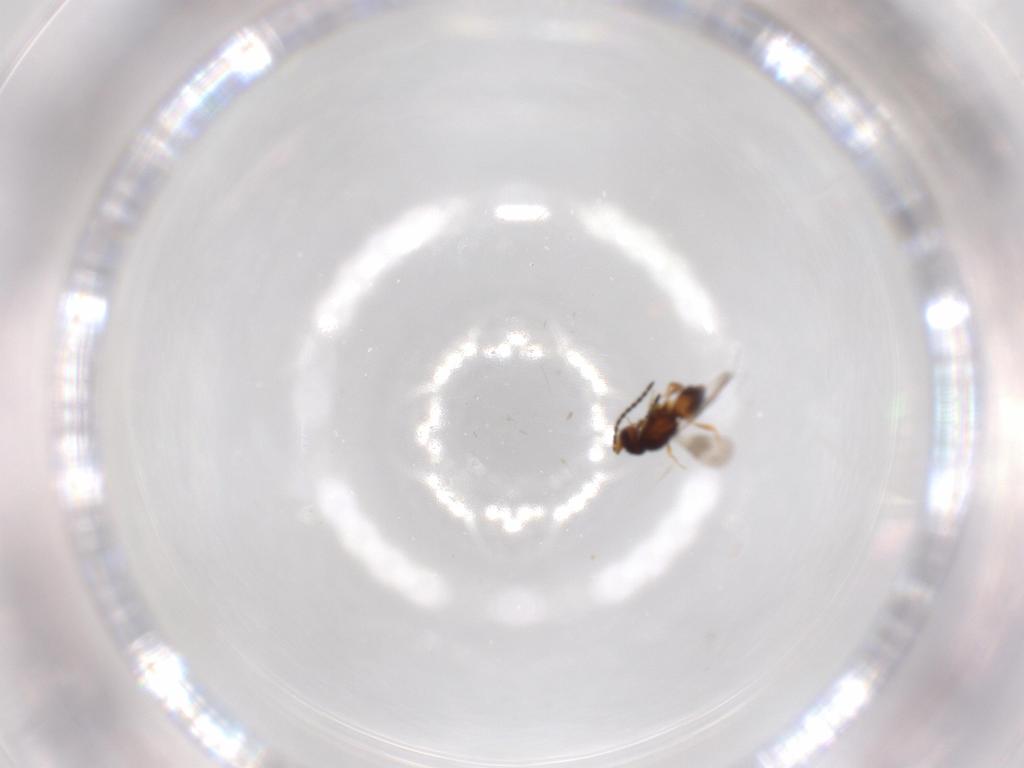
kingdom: Animalia
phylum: Arthropoda
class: Insecta
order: Hymenoptera
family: Ceraphronidae
